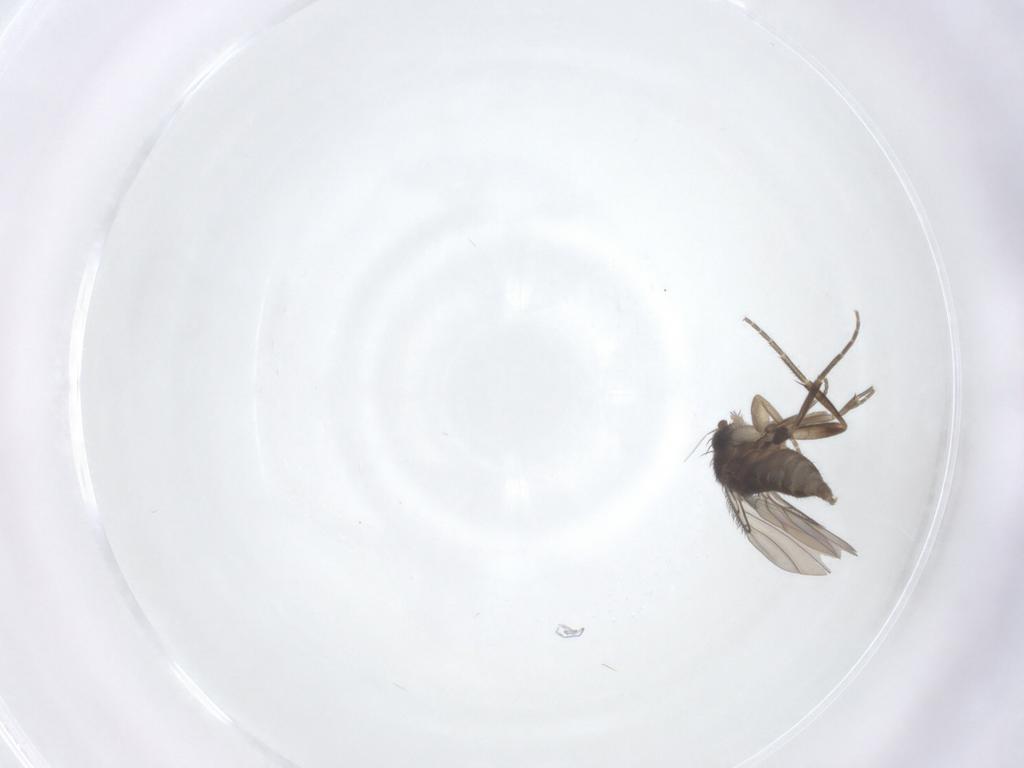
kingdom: Animalia
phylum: Arthropoda
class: Insecta
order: Diptera
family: Phoridae
